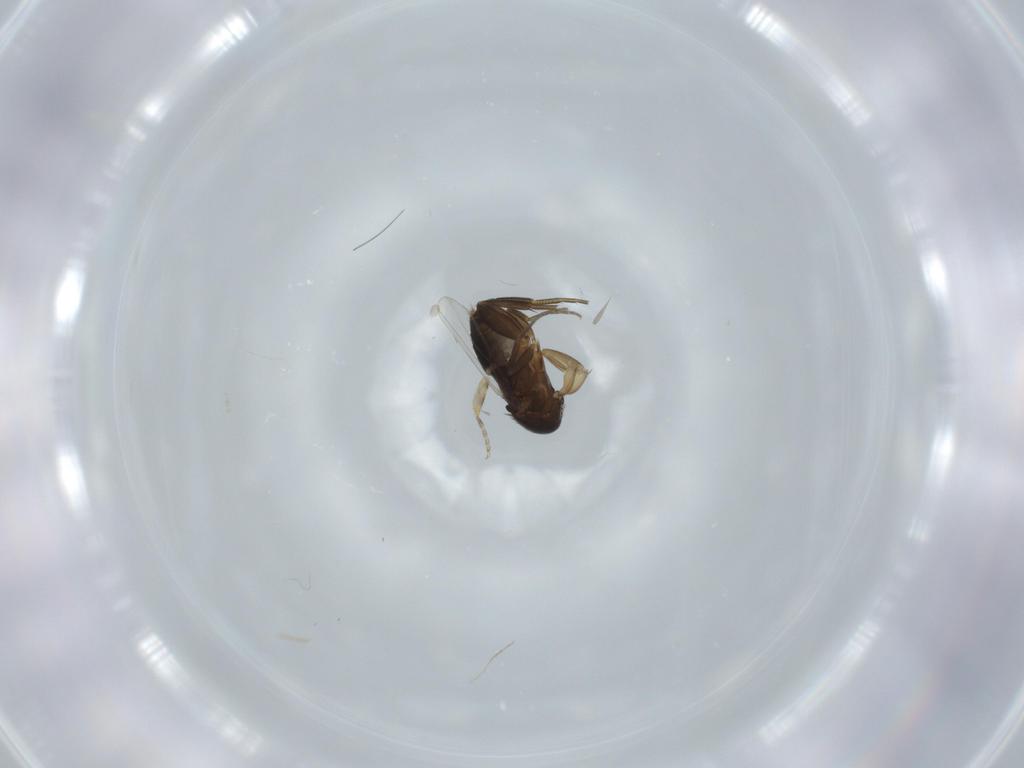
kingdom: Animalia
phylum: Arthropoda
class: Insecta
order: Diptera
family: Phoridae
